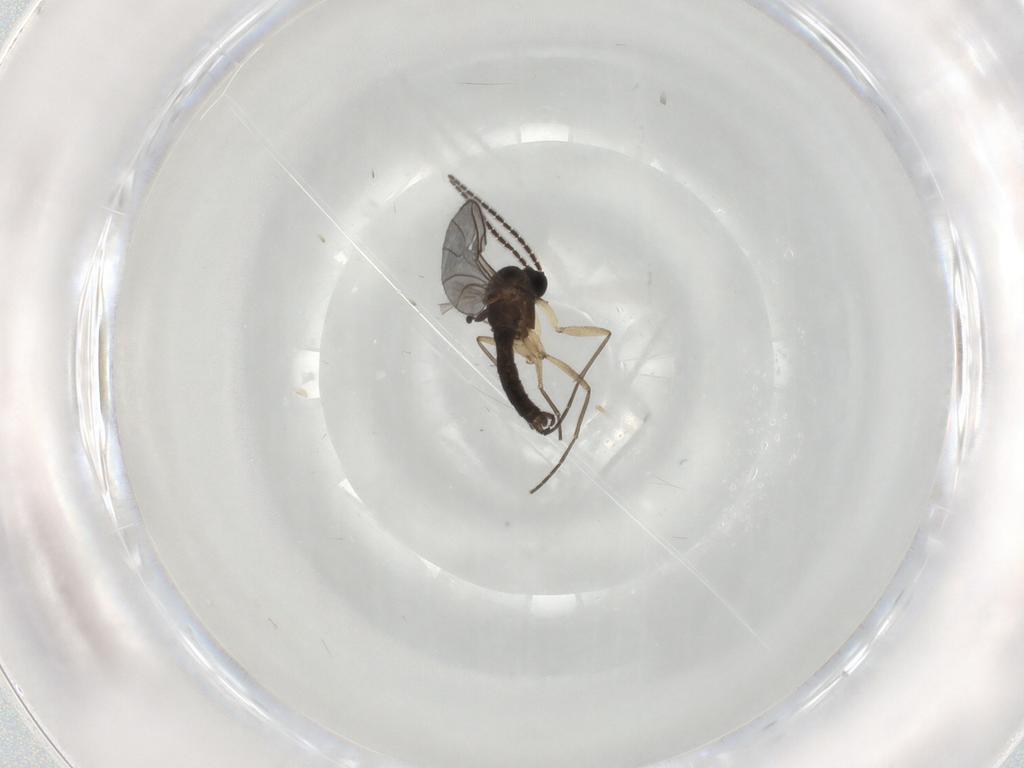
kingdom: Animalia
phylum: Arthropoda
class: Insecta
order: Diptera
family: Sciaridae
